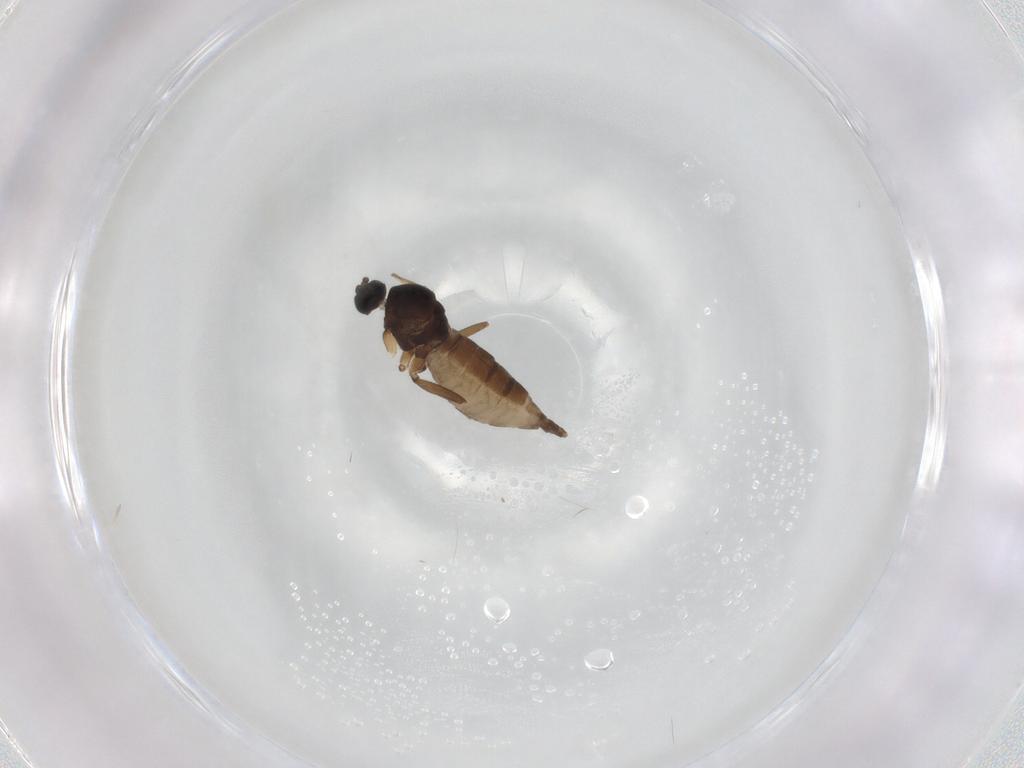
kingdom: Animalia
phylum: Arthropoda
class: Insecta
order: Diptera
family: Sciaridae
